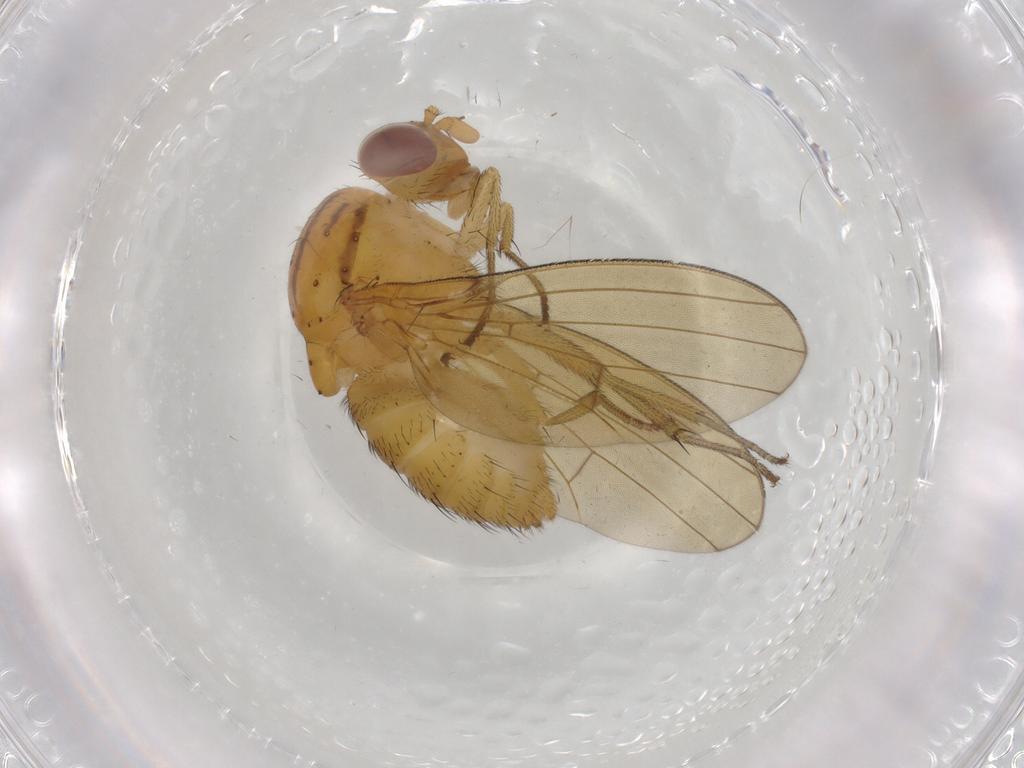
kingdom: Animalia
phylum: Arthropoda
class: Insecta
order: Diptera
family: Phoridae
